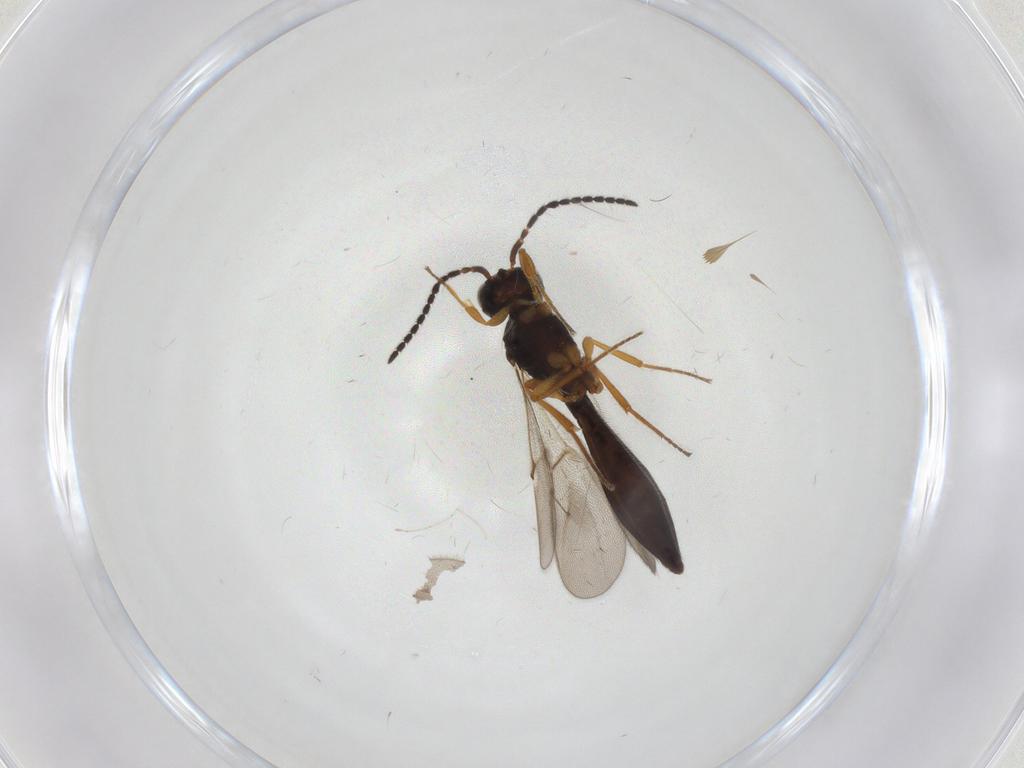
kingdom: Animalia
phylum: Arthropoda
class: Insecta
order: Hymenoptera
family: Scelionidae
